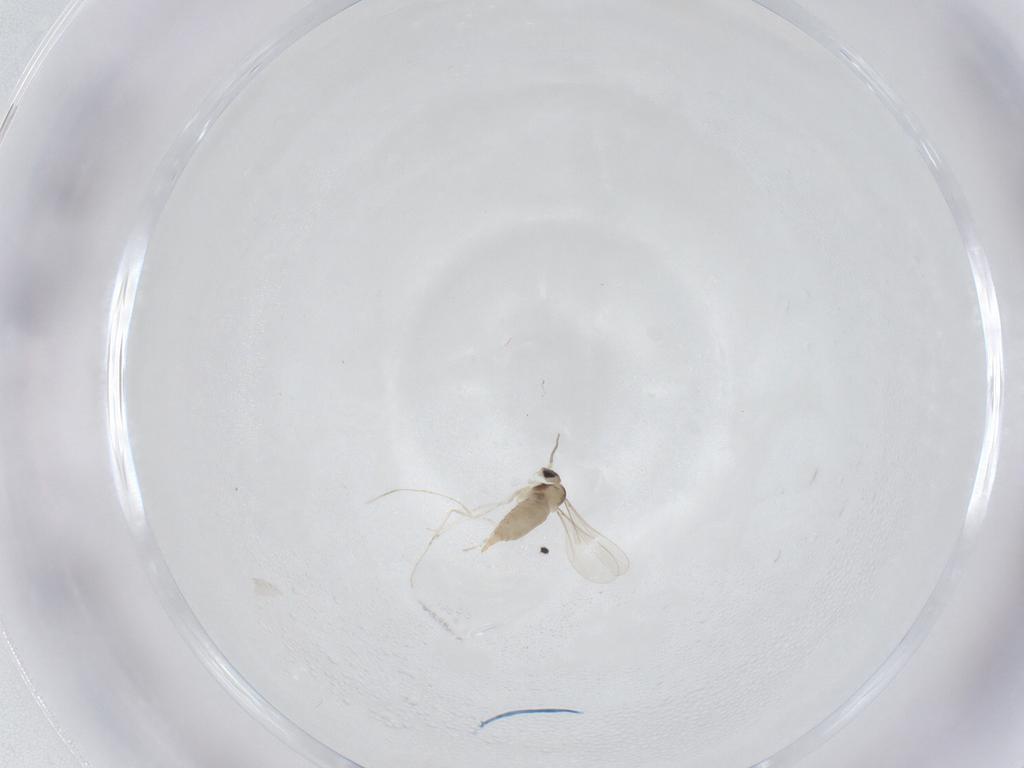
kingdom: Animalia
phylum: Arthropoda
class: Insecta
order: Diptera
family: Cecidomyiidae
